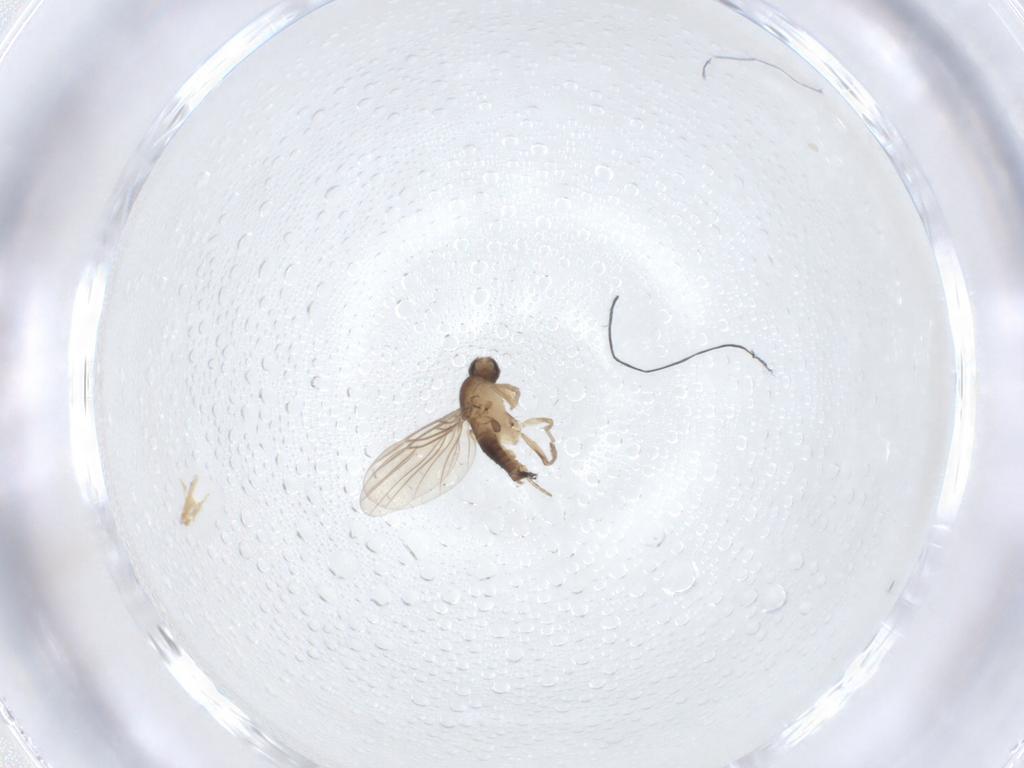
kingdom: Animalia
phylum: Arthropoda
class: Insecta
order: Diptera
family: Phoridae
